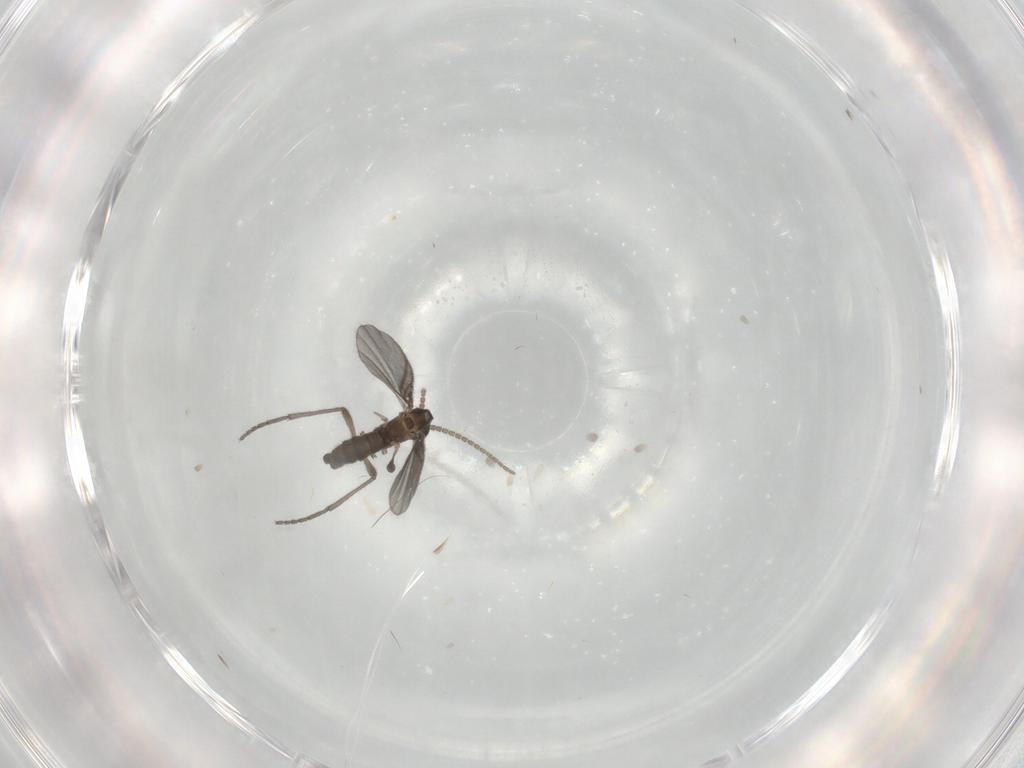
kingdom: Animalia
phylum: Arthropoda
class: Insecta
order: Diptera
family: Sciaridae
